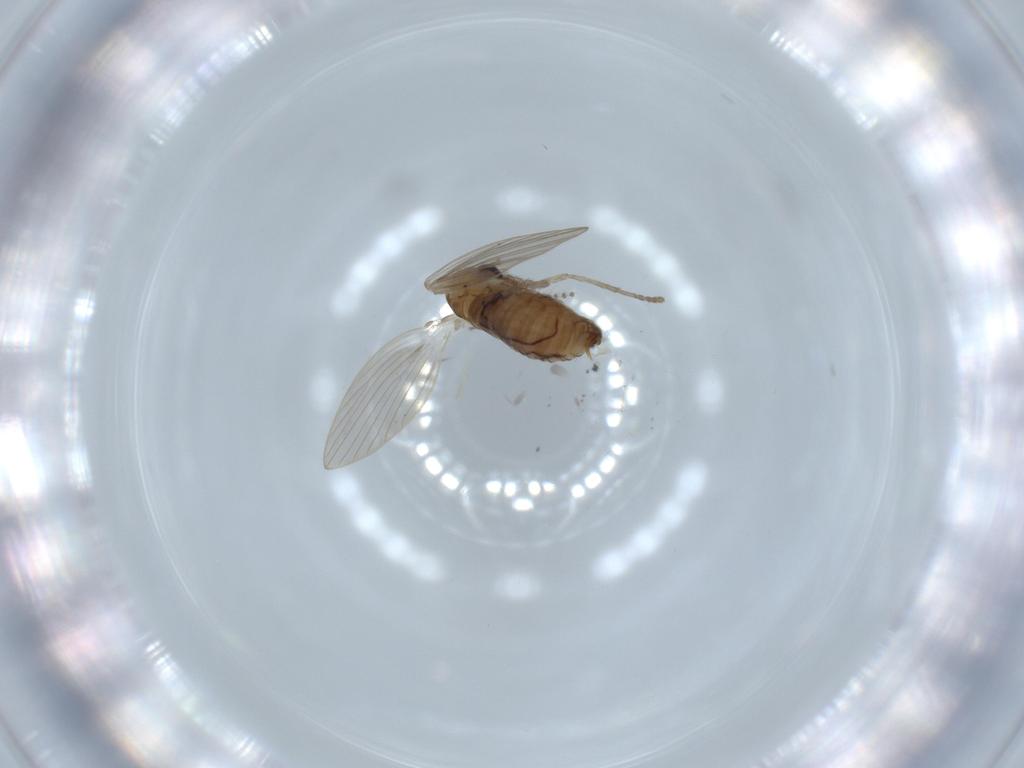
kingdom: Animalia
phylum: Arthropoda
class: Insecta
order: Diptera
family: Psychodidae
